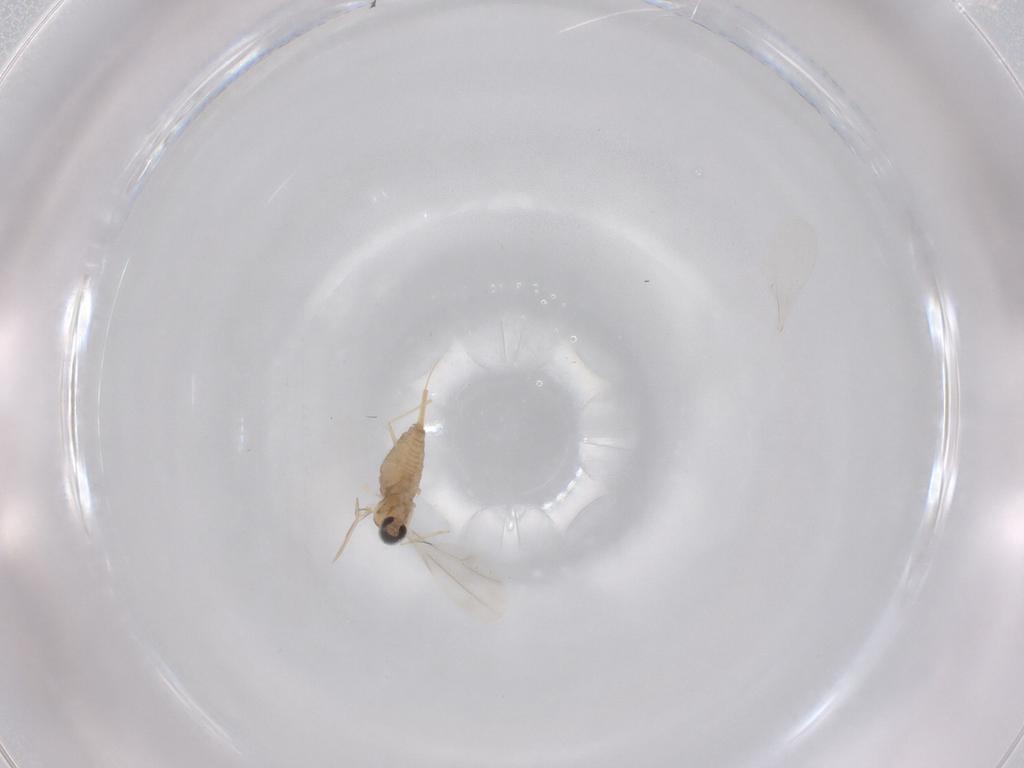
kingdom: Animalia
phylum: Arthropoda
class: Insecta
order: Diptera
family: Cecidomyiidae
